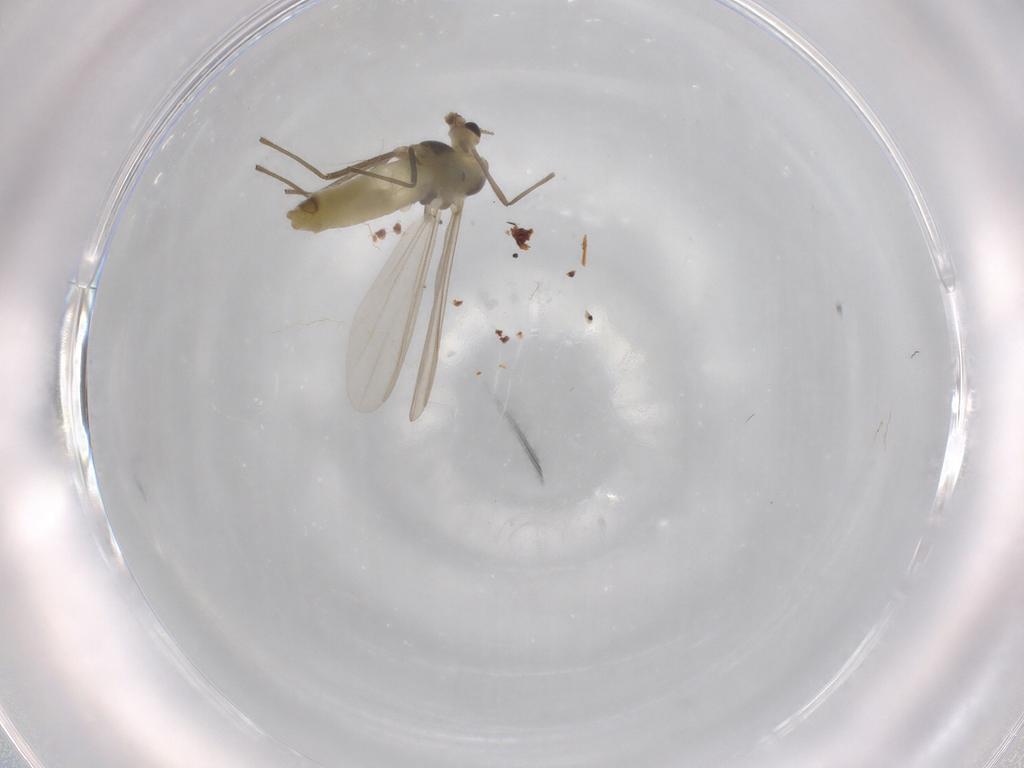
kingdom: Animalia
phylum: Arthropoda
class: Insecta
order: Diptera
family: Chironomidae
